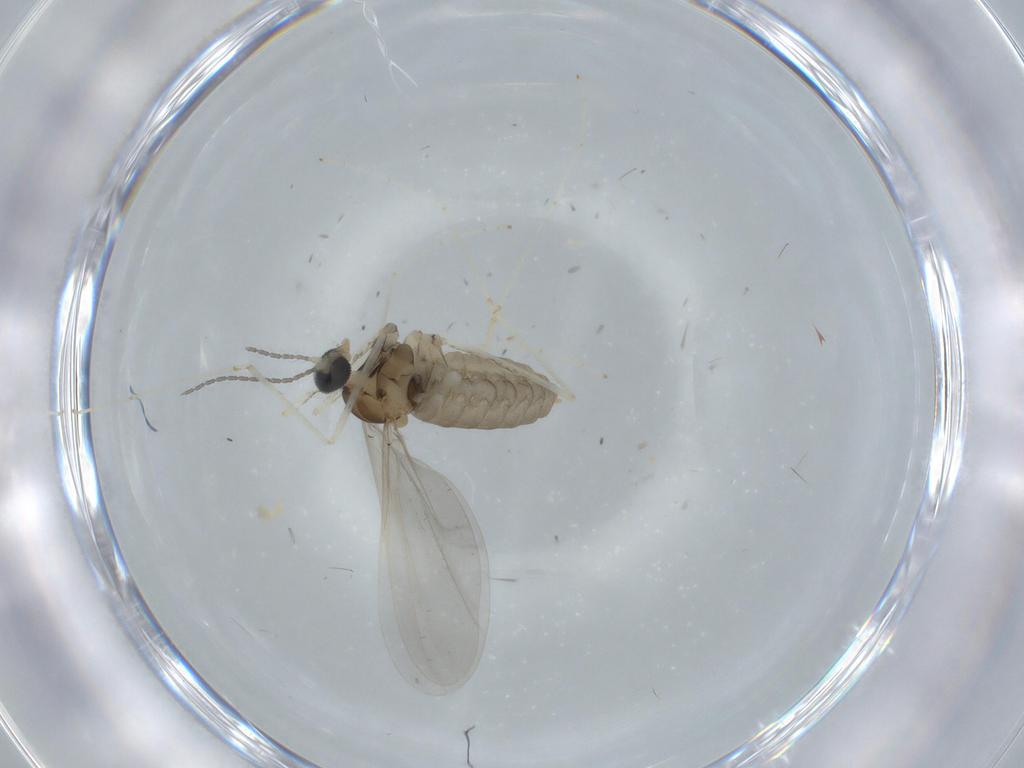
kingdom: Animalia
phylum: Arthropoda
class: Insecta
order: Diptera
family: Cecidomyiidae
